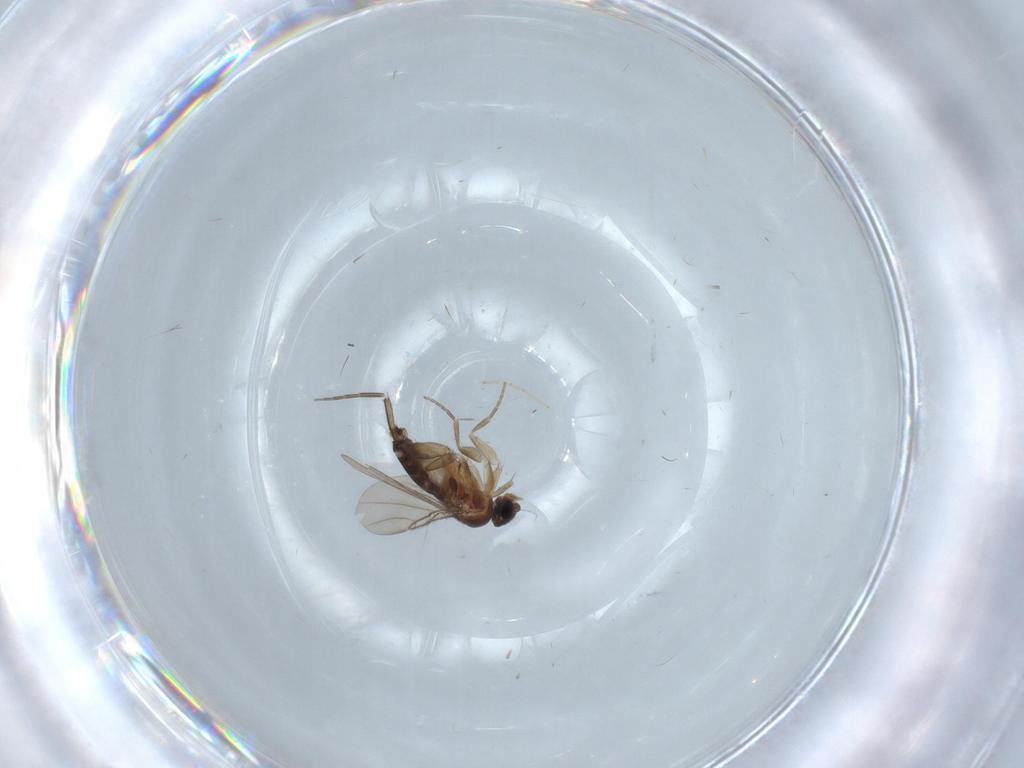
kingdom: Animalia
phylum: Arthropoda
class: Insecta
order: Diptera
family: Phoridae
